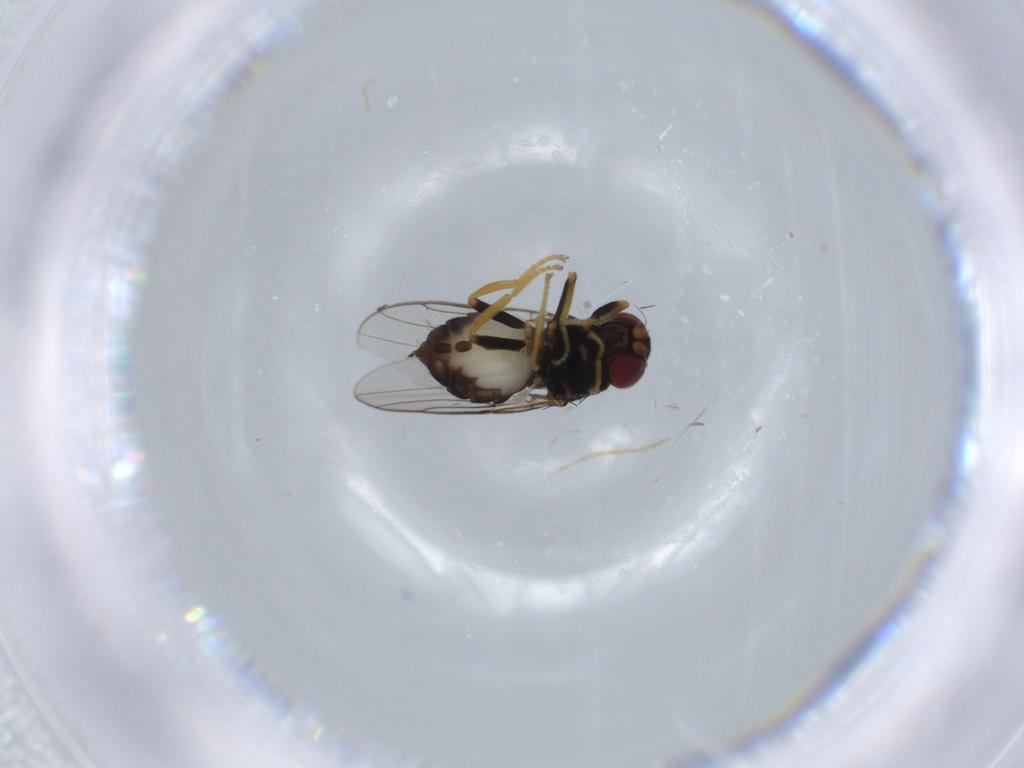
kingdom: Animalia
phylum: Arthropoda
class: Insecta
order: Diptera
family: Chloropidae
